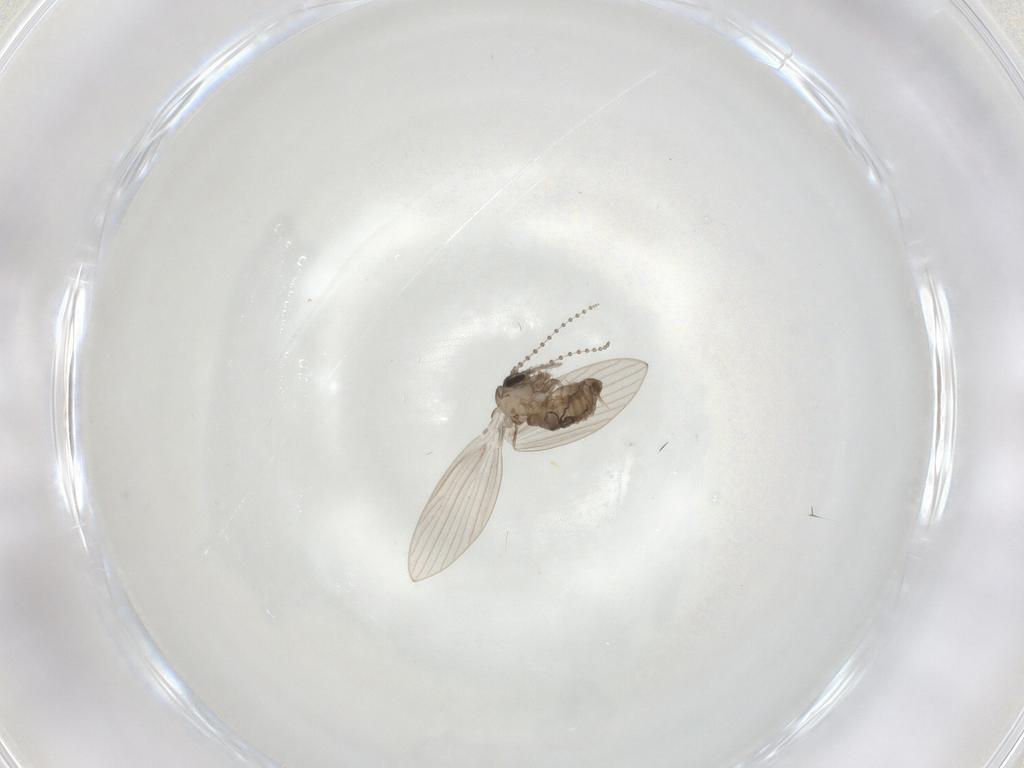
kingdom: Animalia
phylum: Arthropoda
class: Insecta
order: Diptera
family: Psychodidae
